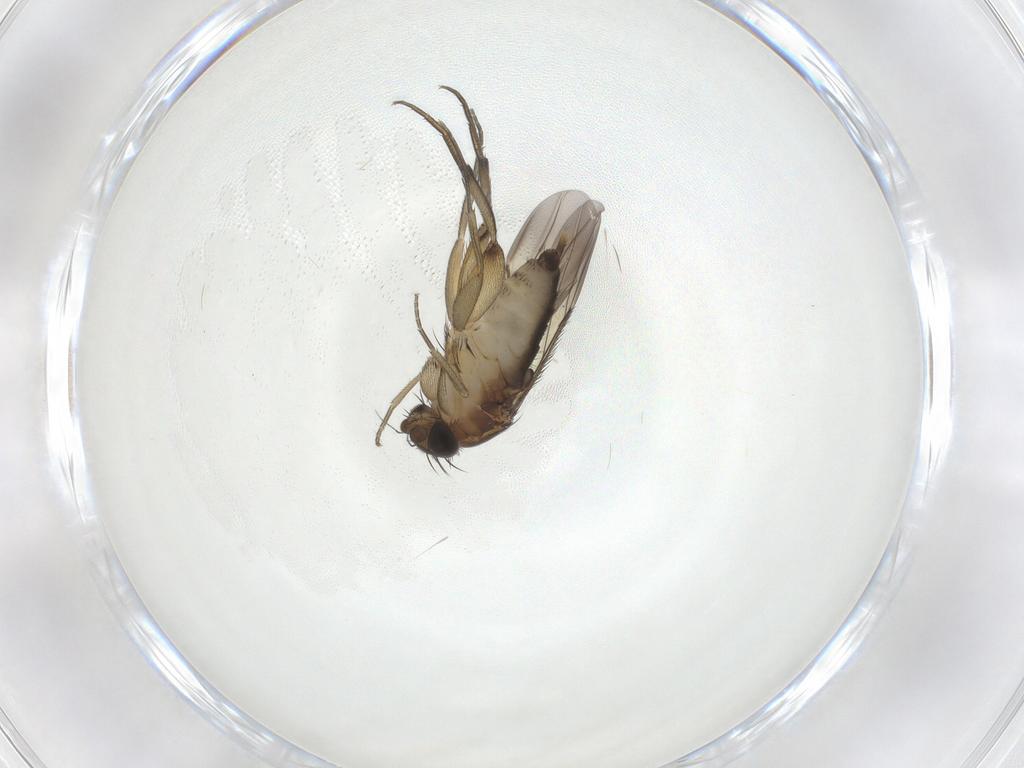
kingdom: Animalia
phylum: Arthropoda
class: Insecta
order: Diptera
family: Phoridae
